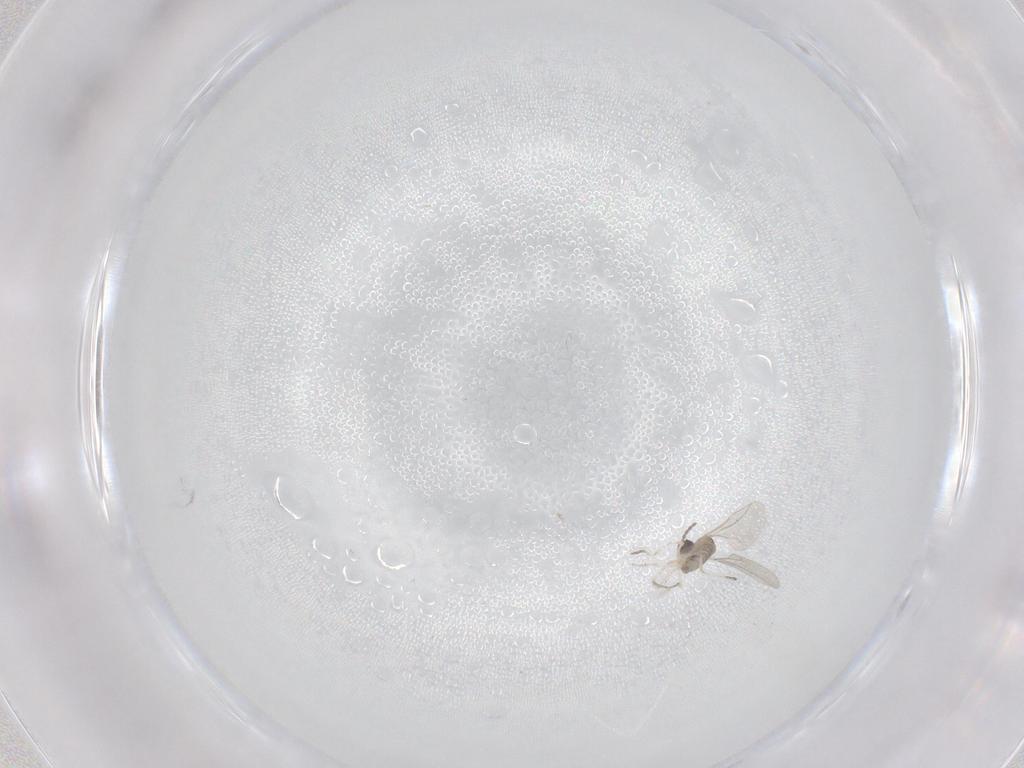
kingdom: Animalia
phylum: Arthropoda
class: Insecta
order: Diptera
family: Cecidomyiidae
